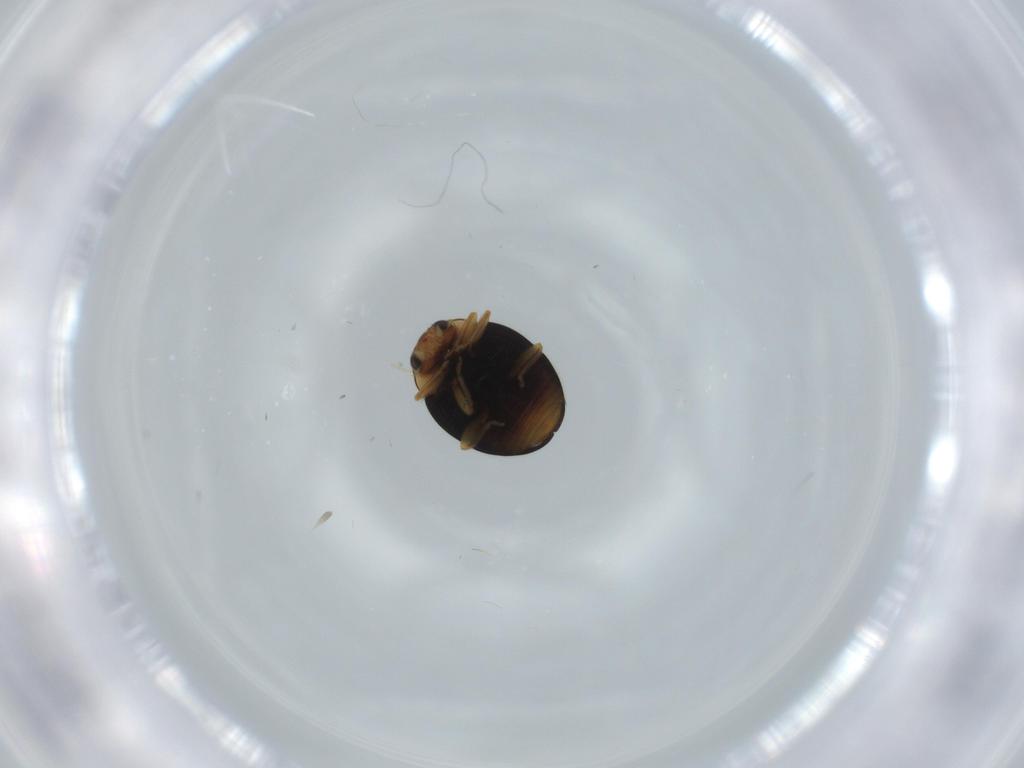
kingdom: Animalia
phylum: Arthropoda
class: Insecta
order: Coleoptera
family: Coccinellidae
